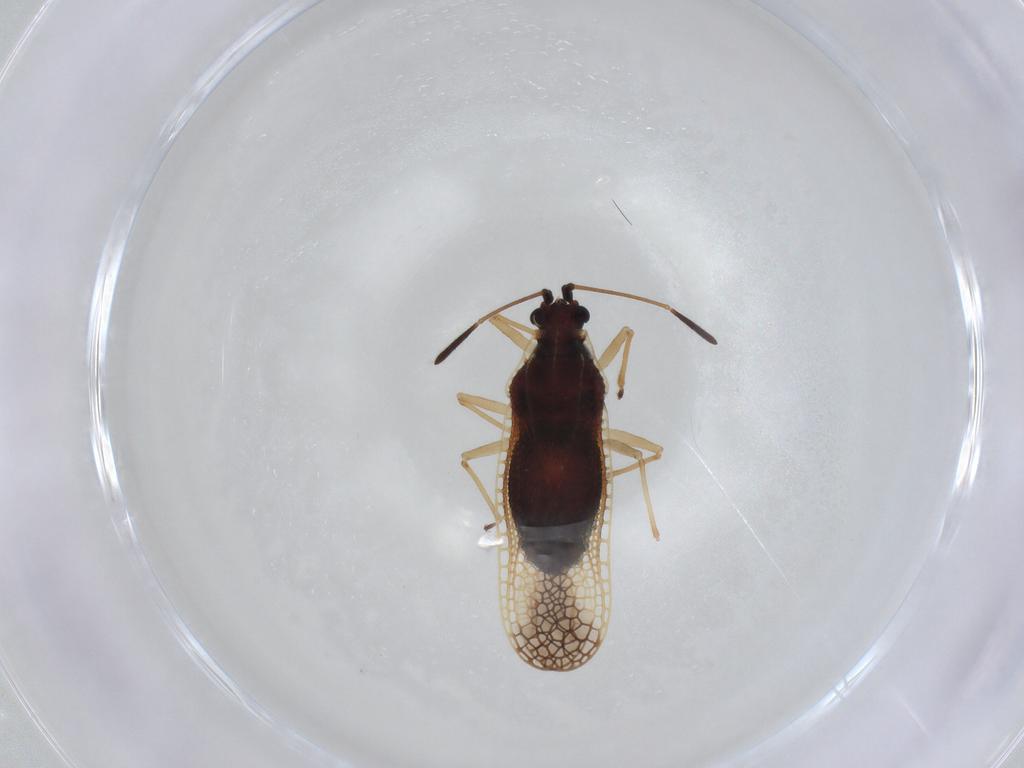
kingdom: Animalia
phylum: Arthropoda
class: Insecta
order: Hemiptera
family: Tingidae
